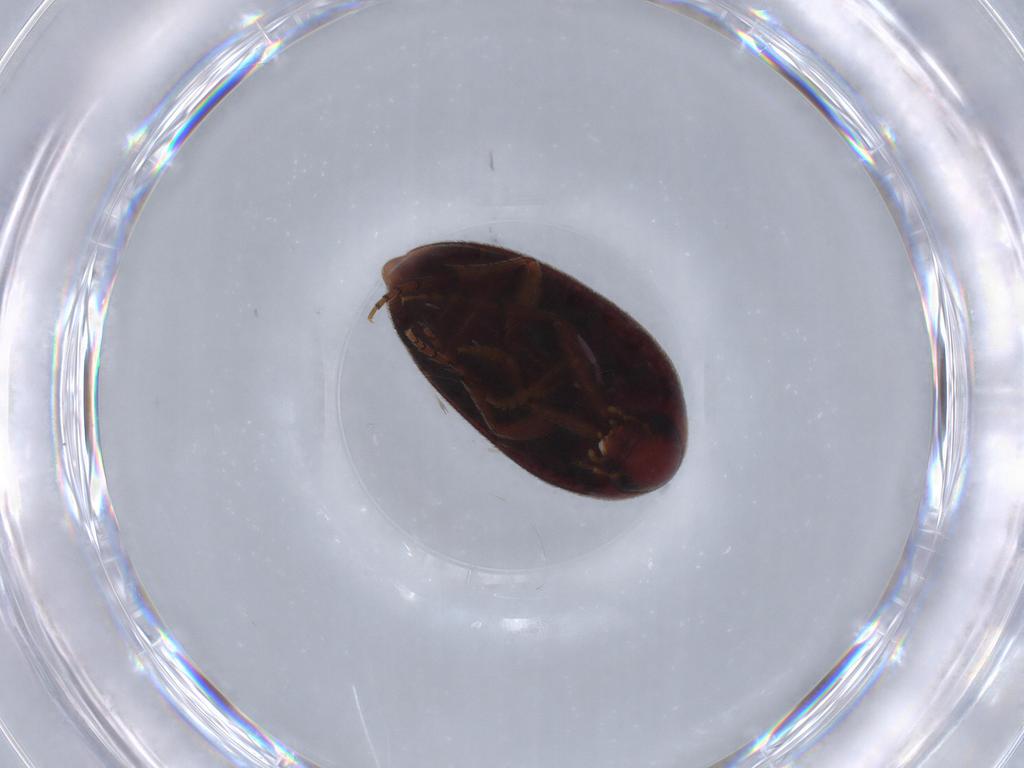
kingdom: Animalia
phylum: Arthropoda
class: Insecta
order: Coleoptera
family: Eucinetidae
